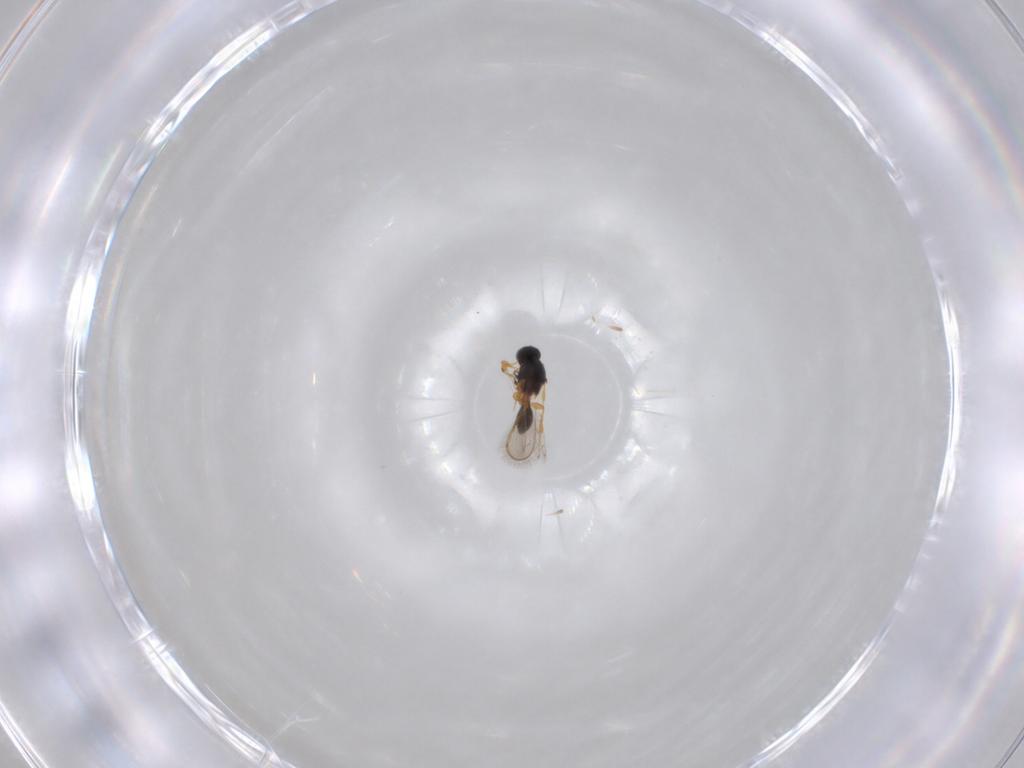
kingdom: Animalia
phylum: Arthropoda
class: Insecta
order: Hymenoptera
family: Platygastridae
